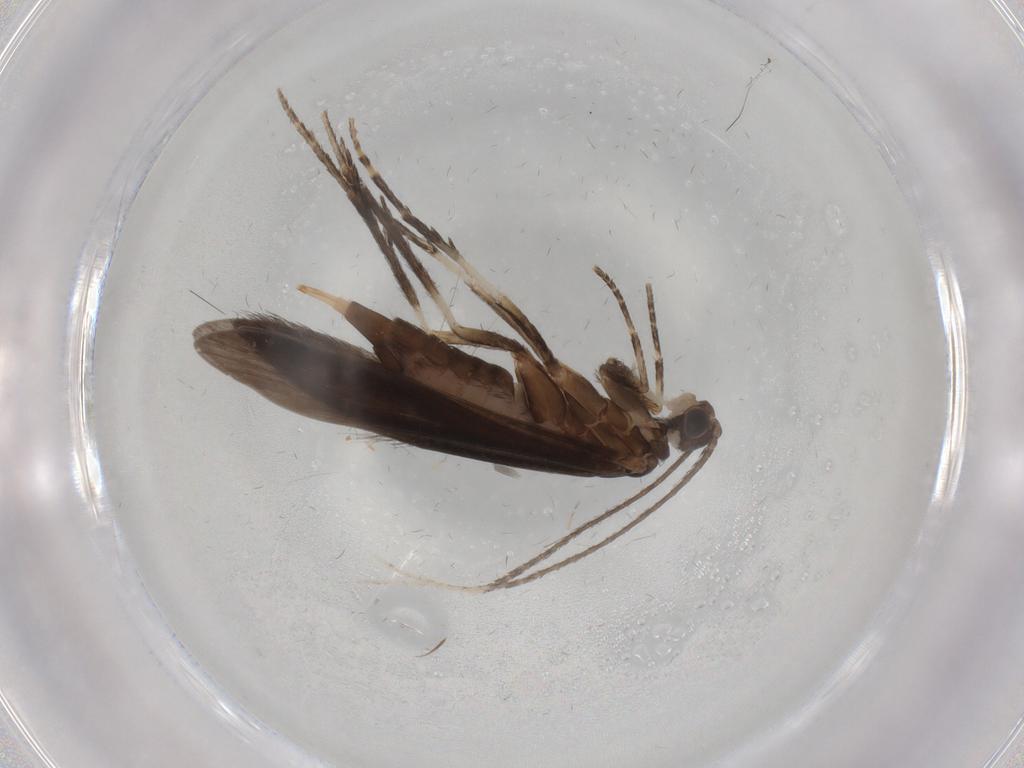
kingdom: Animalia
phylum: Arthropoda
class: Insecta
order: Trichoptera
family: Xiphocentronidae
